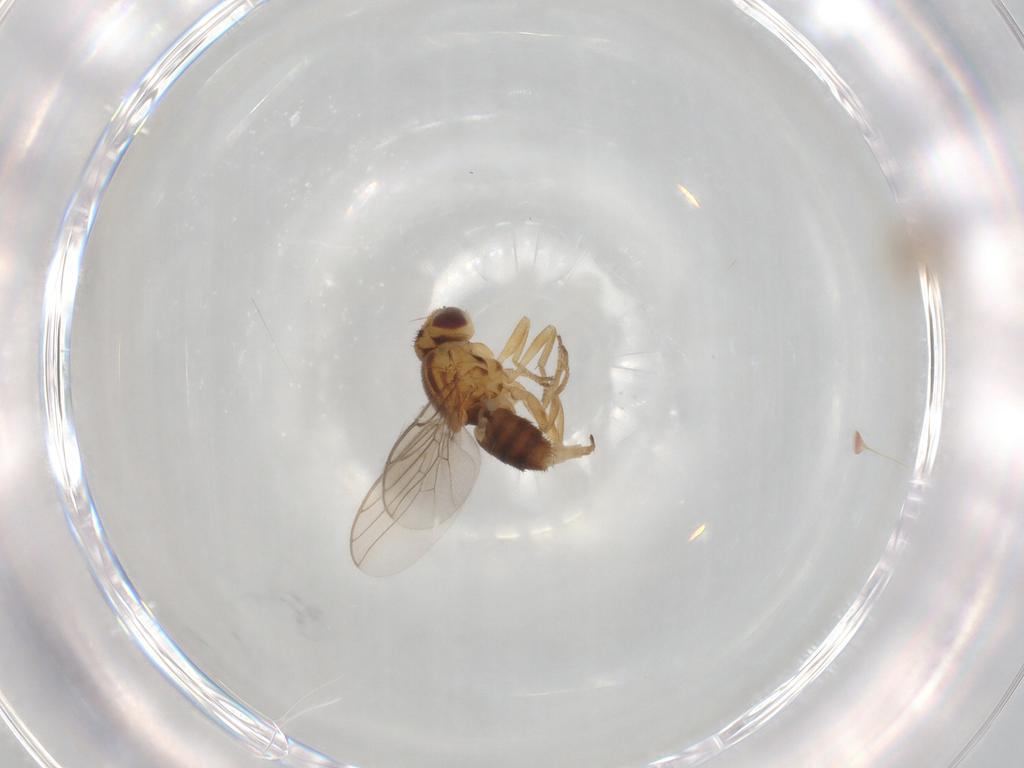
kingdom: Animalia
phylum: Arthropoda
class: Insecta
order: Diptera
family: Chloropidae
